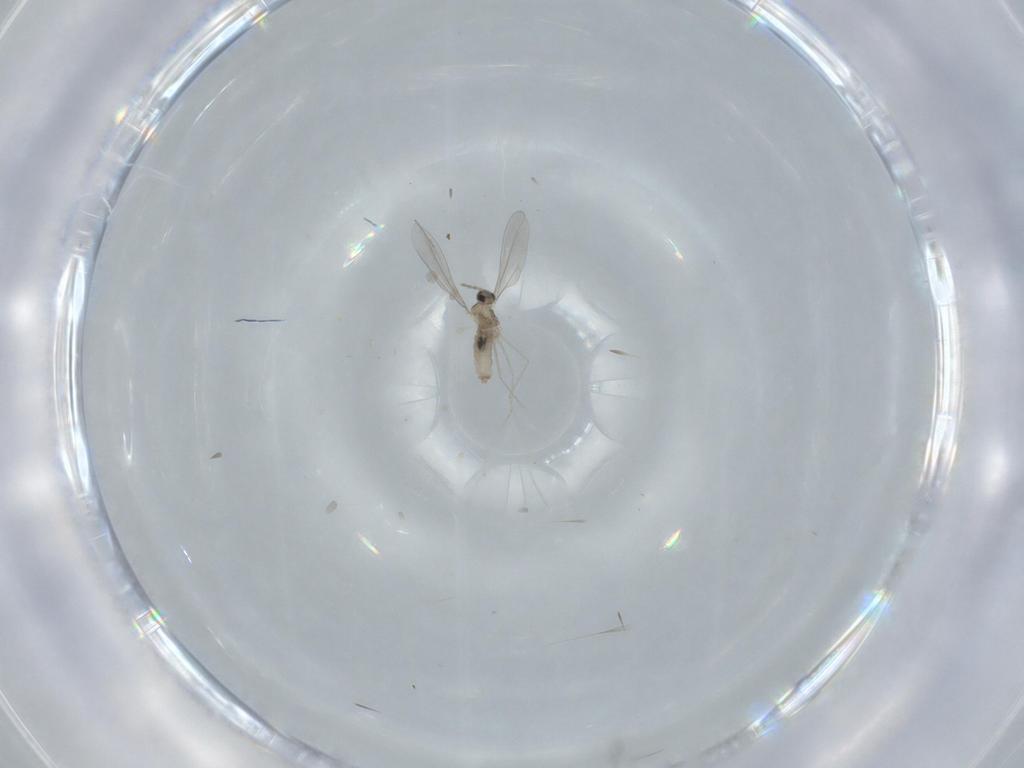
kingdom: Animalia
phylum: Arthropoda
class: Insecta
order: Diptera
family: Cecidomyiidae
